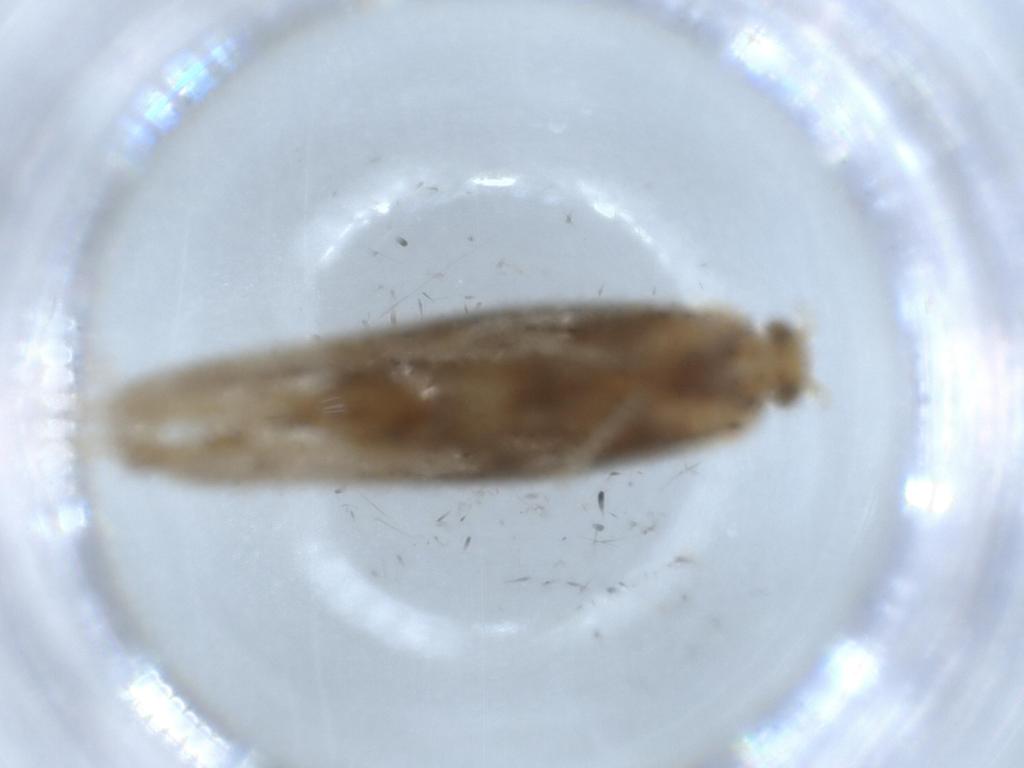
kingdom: Animalia
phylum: Arthropoda
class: Insecta
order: Lepidoptera
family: Argyresthiidae
